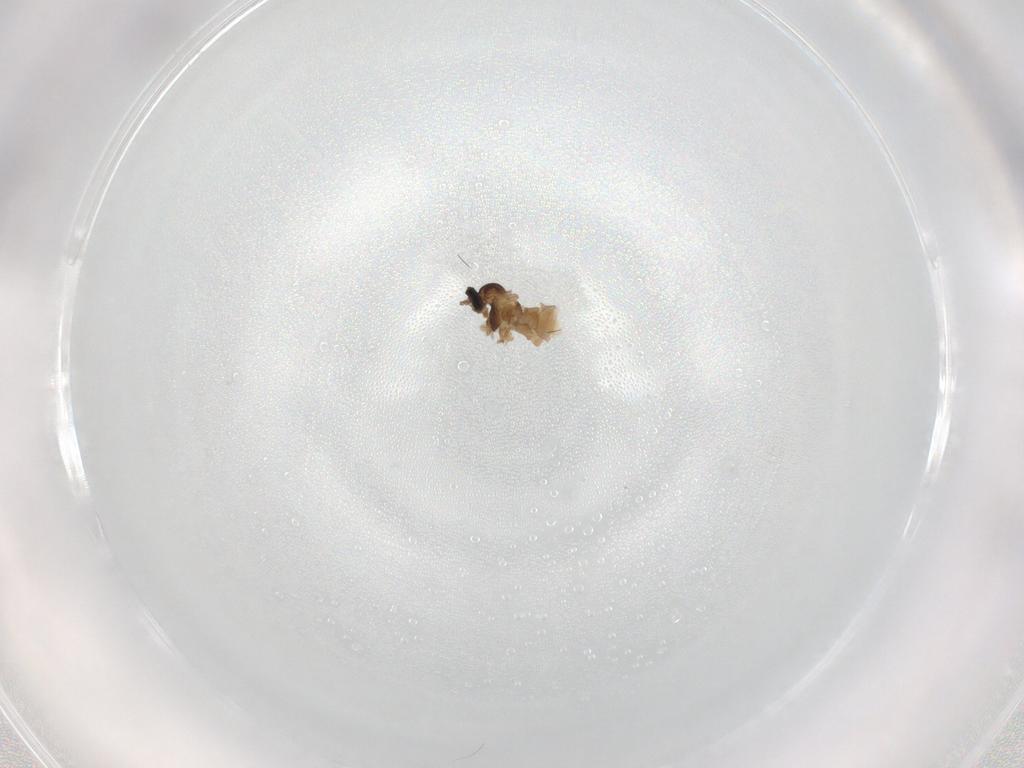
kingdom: Animalia
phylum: Arthropoda
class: Insecta
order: Diptera
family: Cecidomyiidae
